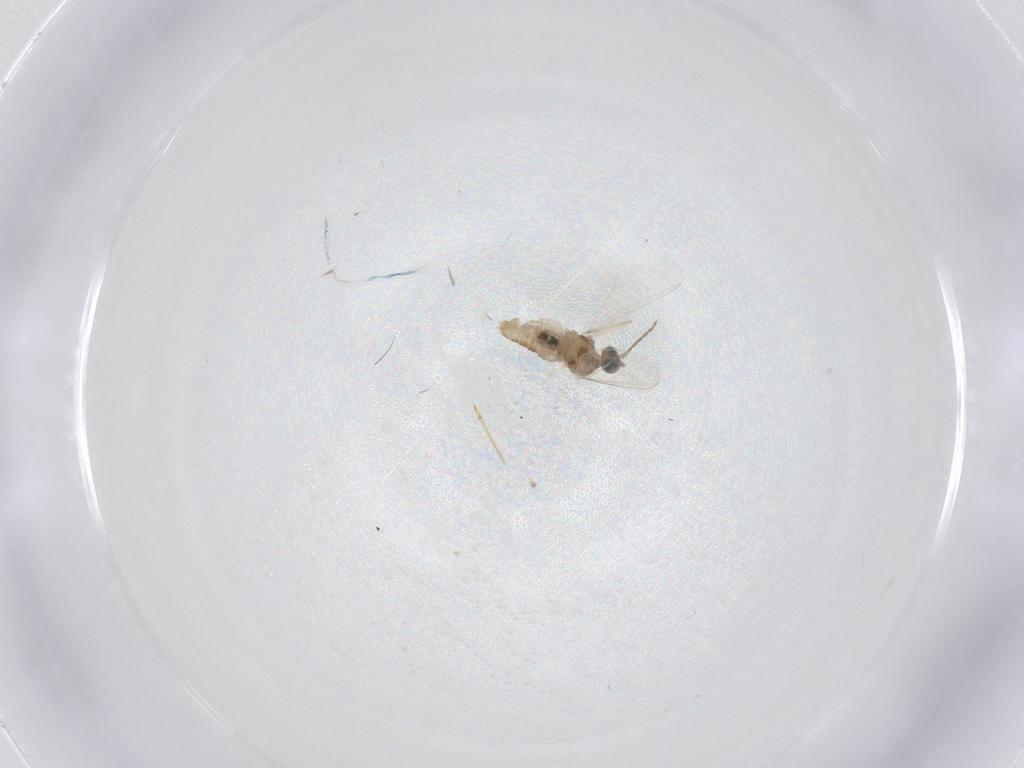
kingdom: Animalia
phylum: Arthropoda
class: Insecta
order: Diptera
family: Cecidomyiidae
